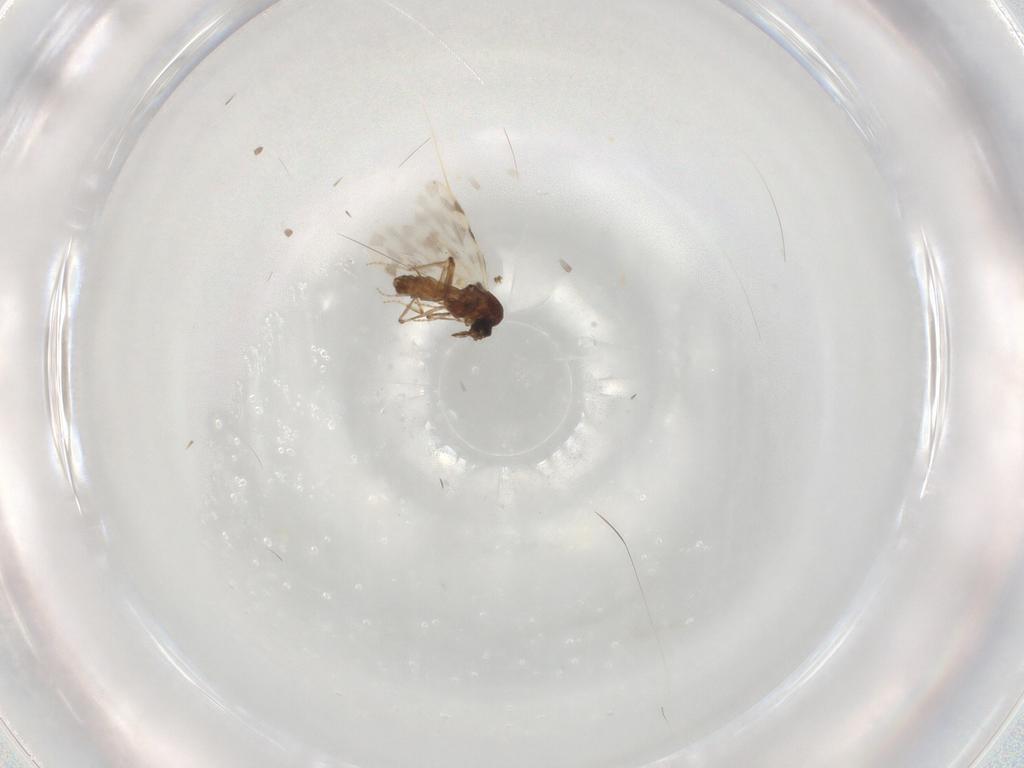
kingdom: Animalia
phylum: Arthropoda
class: Insecta
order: Diptera
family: Ceratopogonidae
